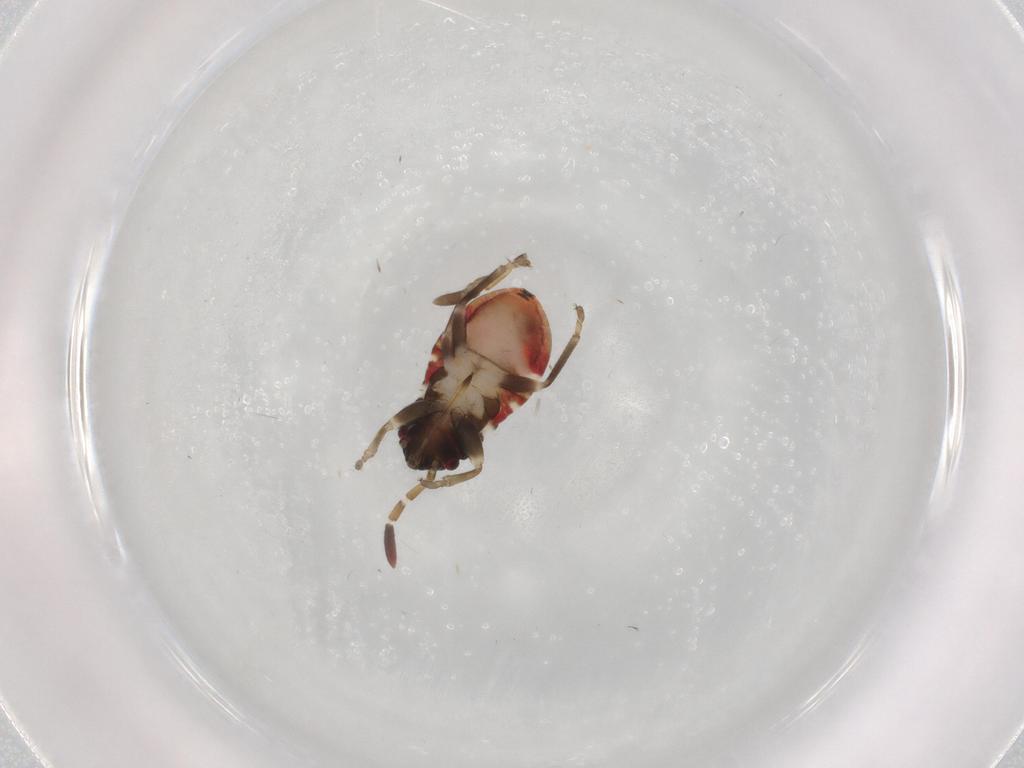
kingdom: Animalia
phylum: Arthropoda
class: Insecta
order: Hemiptera
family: Rhyparochromidae
